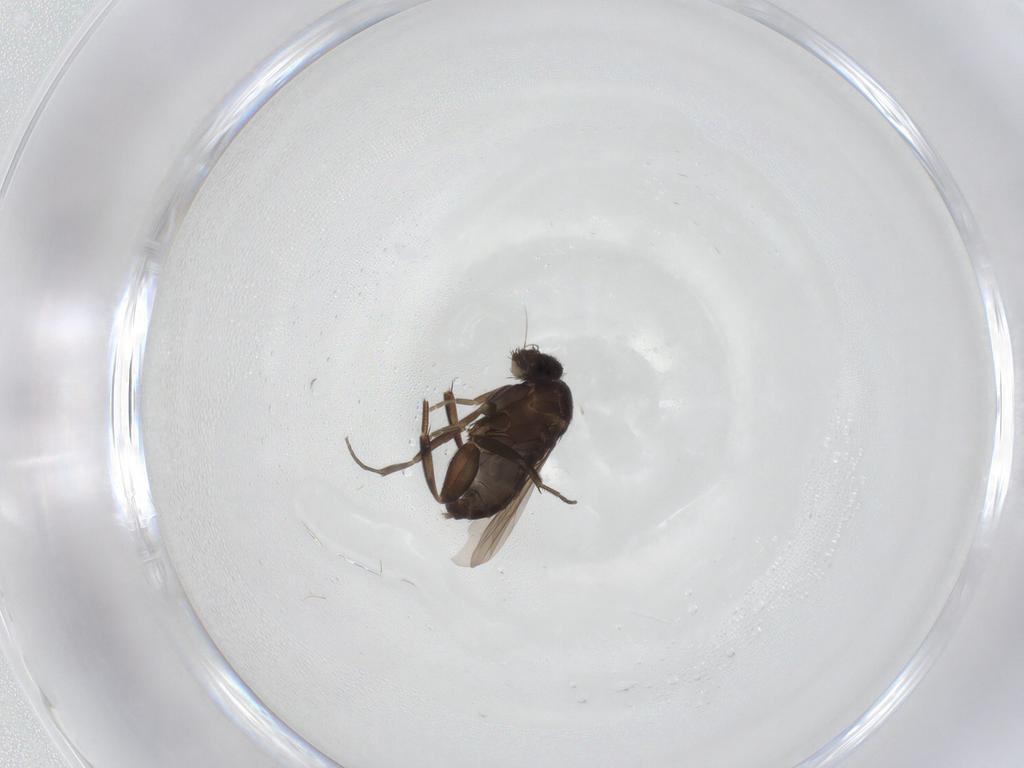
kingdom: Animalia
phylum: Arthropoda
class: Insecta
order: Diptera
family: Phoridae
